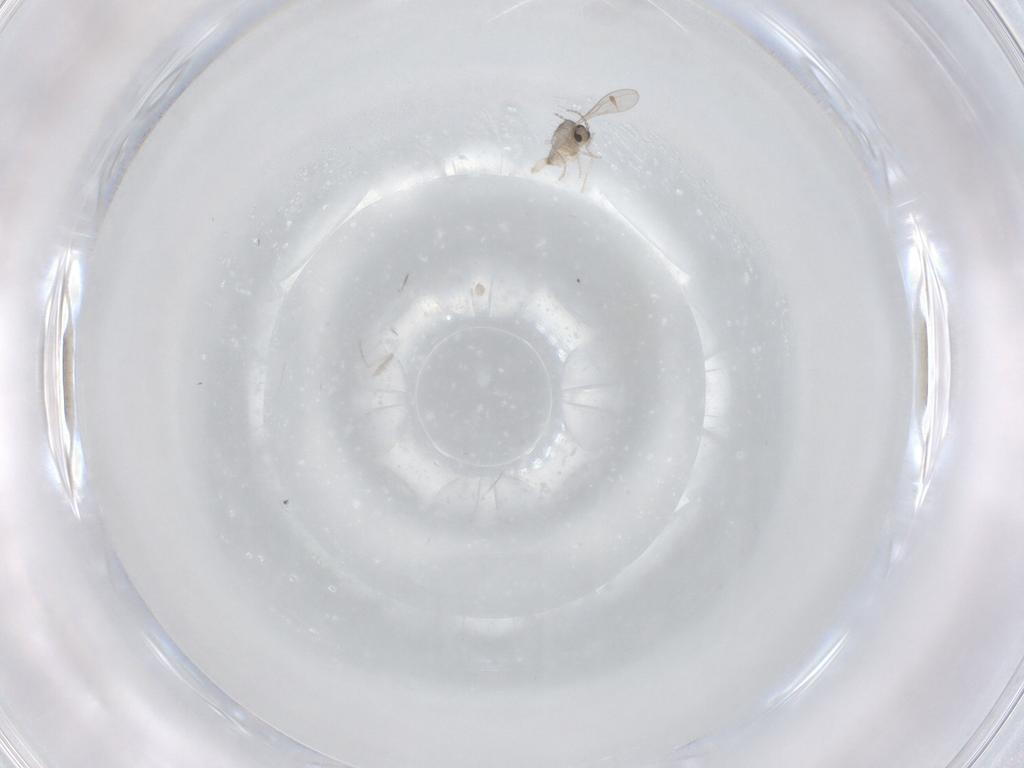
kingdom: Animalia
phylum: Arthropoda
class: Insecta
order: Diptera
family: Cecidomyiidae
